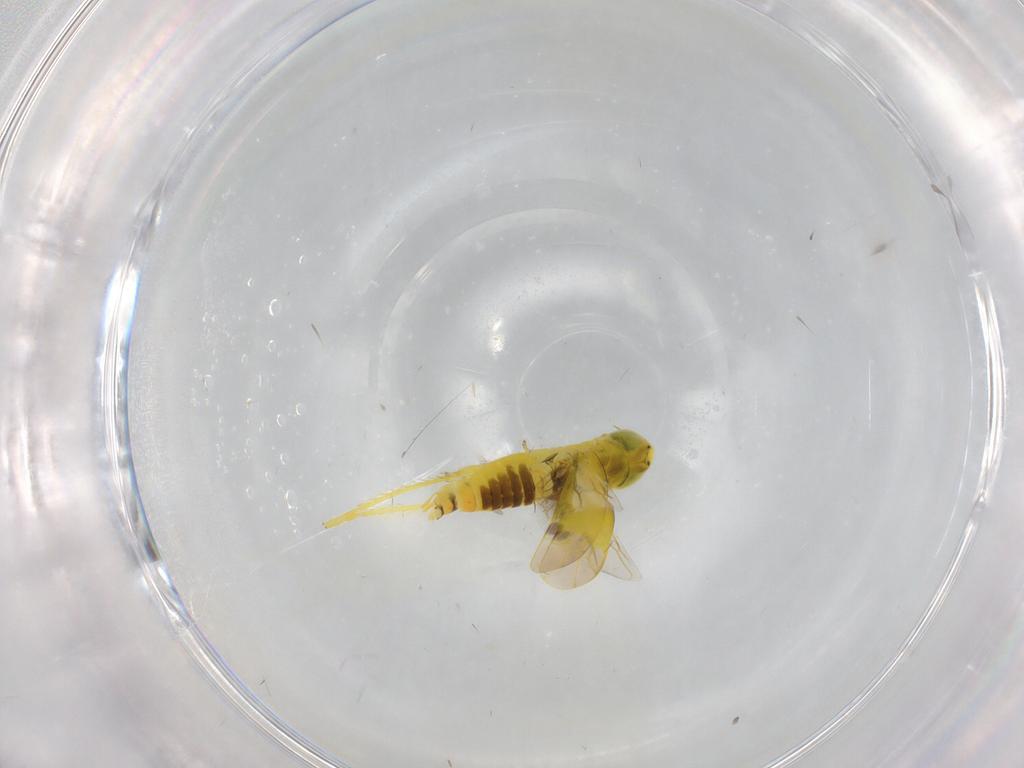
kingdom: Animalia
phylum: Arthropoda
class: Insecta
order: Hemiptera
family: Cicadellidae
